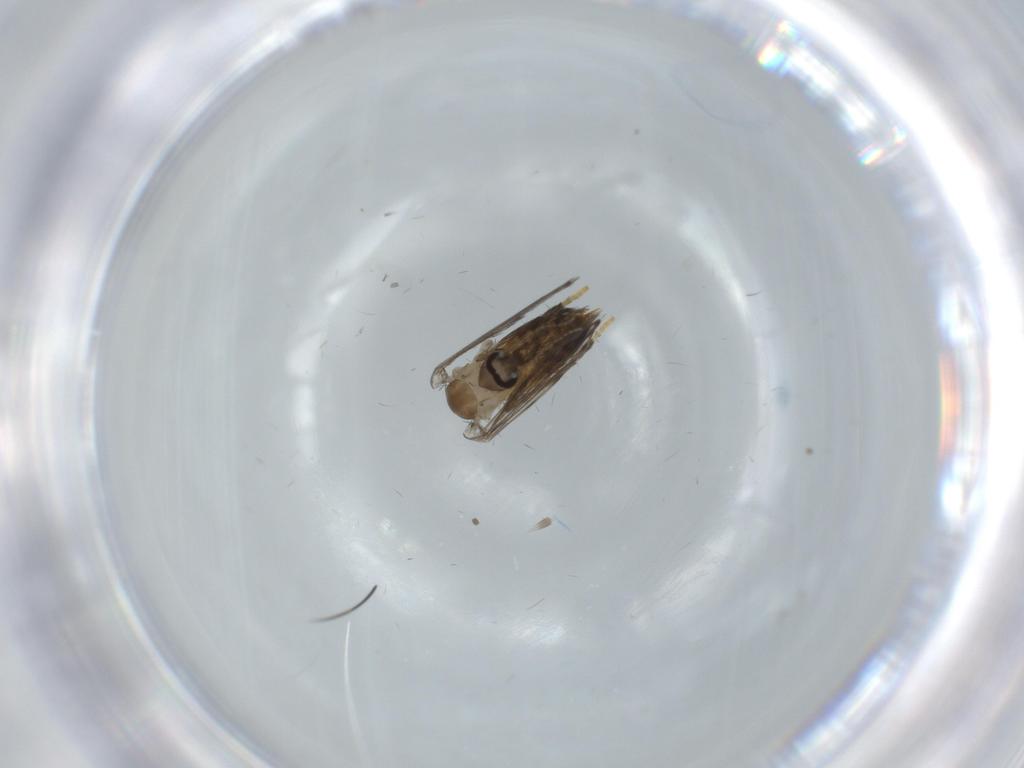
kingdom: Animalia
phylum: Arthropoda
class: Insecta
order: Diptera
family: Psychodidae
